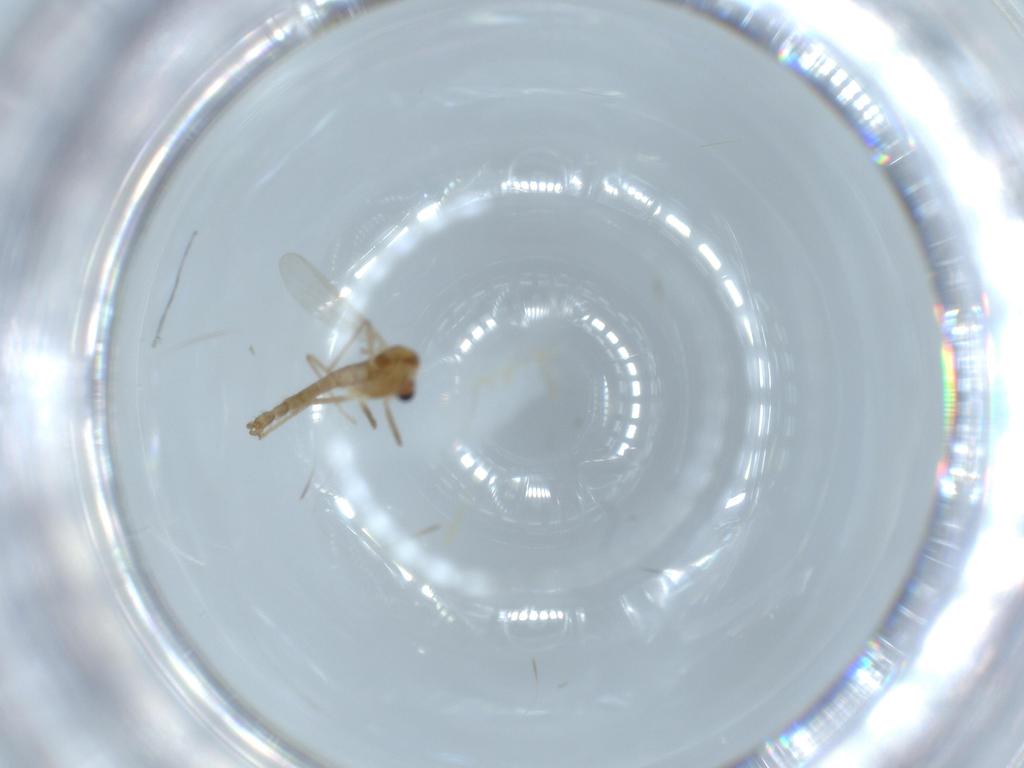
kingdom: Animalia
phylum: Arthropoda
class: Insecta
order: Diptera
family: Chironomidae
